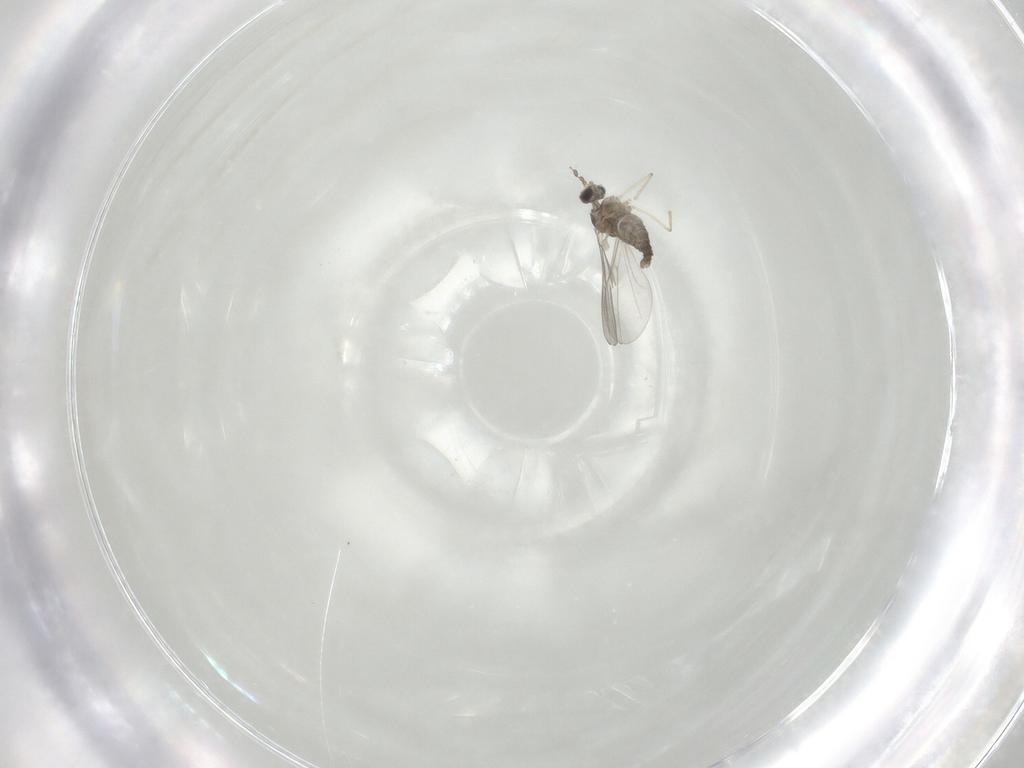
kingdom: Animalia
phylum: Arthropoda
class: Insecta
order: Diptera
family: Cecidomyiidae
